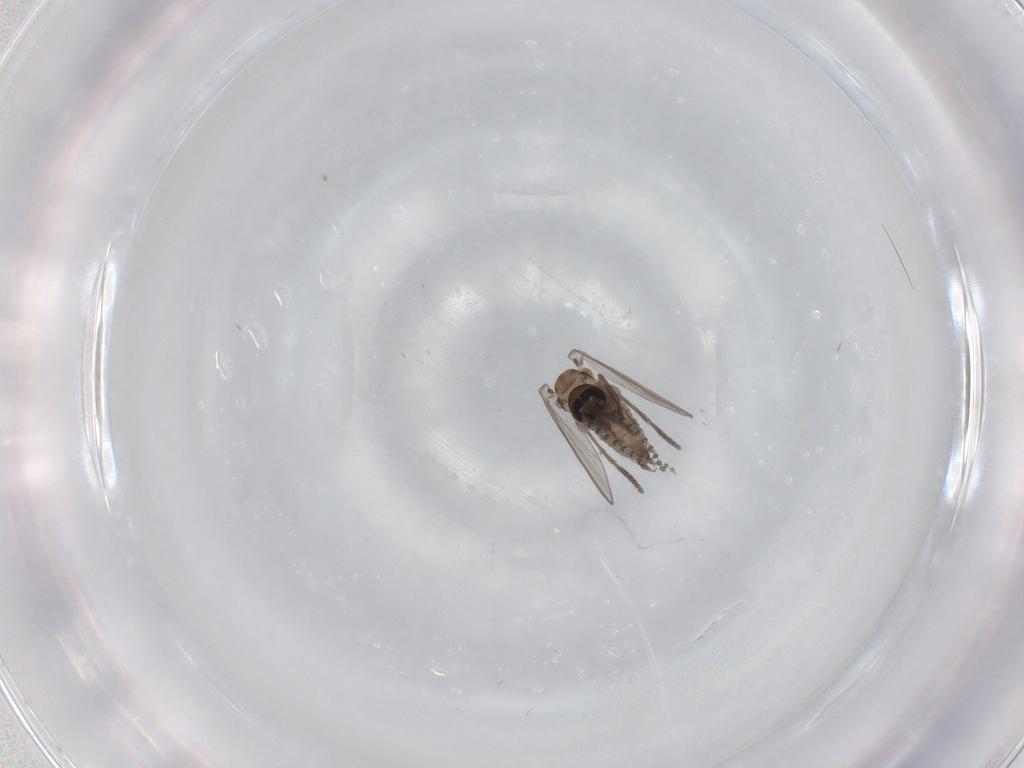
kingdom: Animalia
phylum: Arthropoda
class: Insecta
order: Diptera
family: Psychodidae
